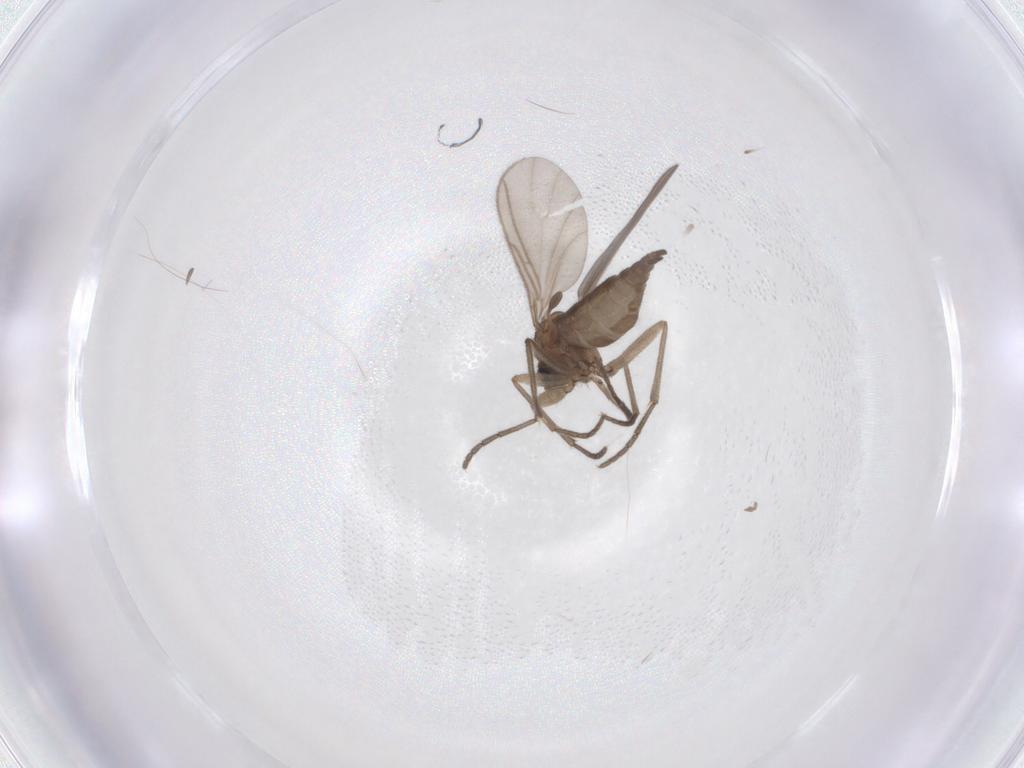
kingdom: Animalia
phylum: Arthropoda
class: Insecta
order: Diptera
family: Sciaridae
